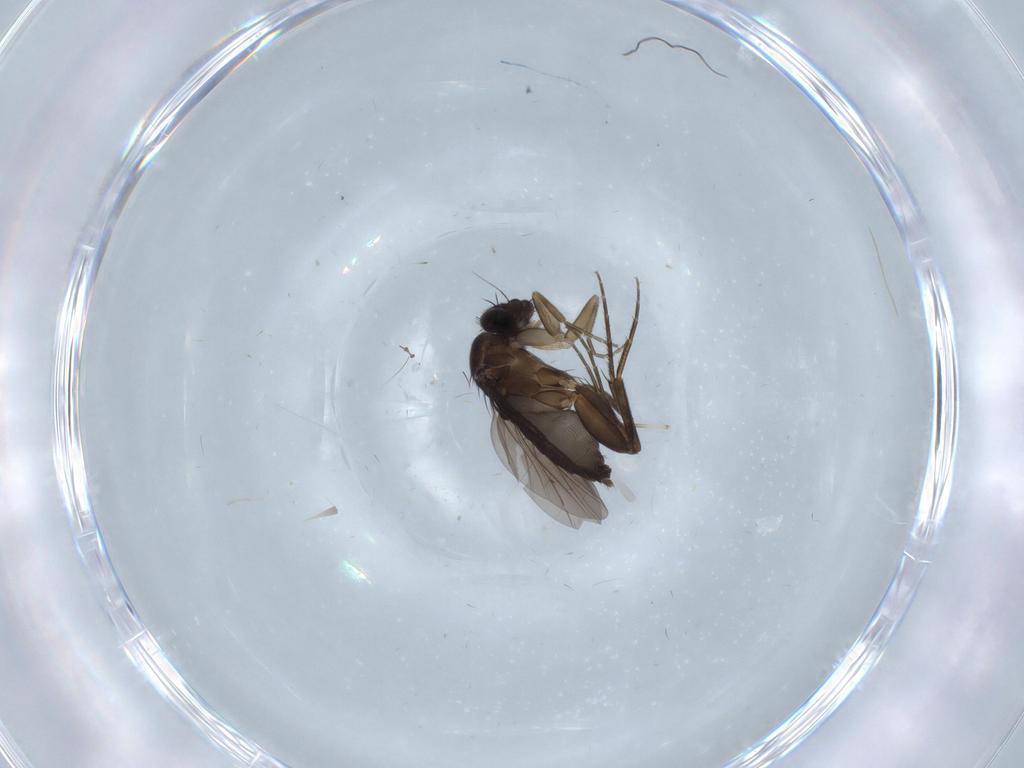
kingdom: Animalia
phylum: Arthropoda
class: Insecta
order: Diptera
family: Phoridae
